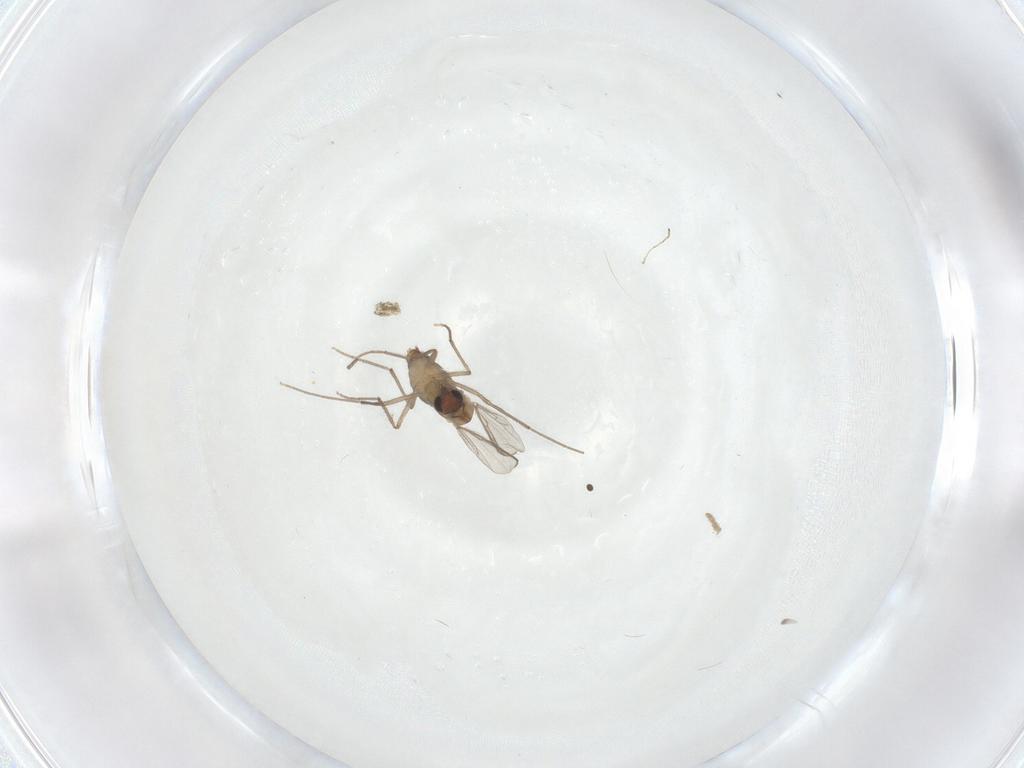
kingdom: Animalia
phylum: Arthropoda
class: Insecta
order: Diptera
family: Chironomidae
